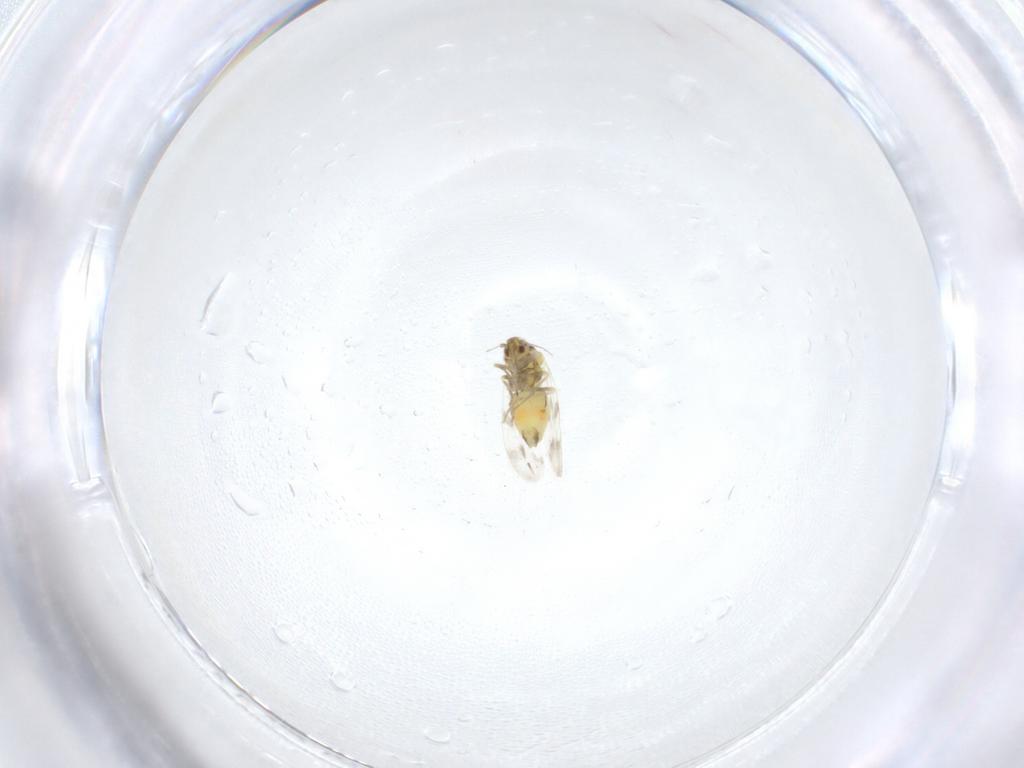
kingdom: Animalia
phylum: Arthropoda
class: Insecta
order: Hemiptera
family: Aleyrodidae
